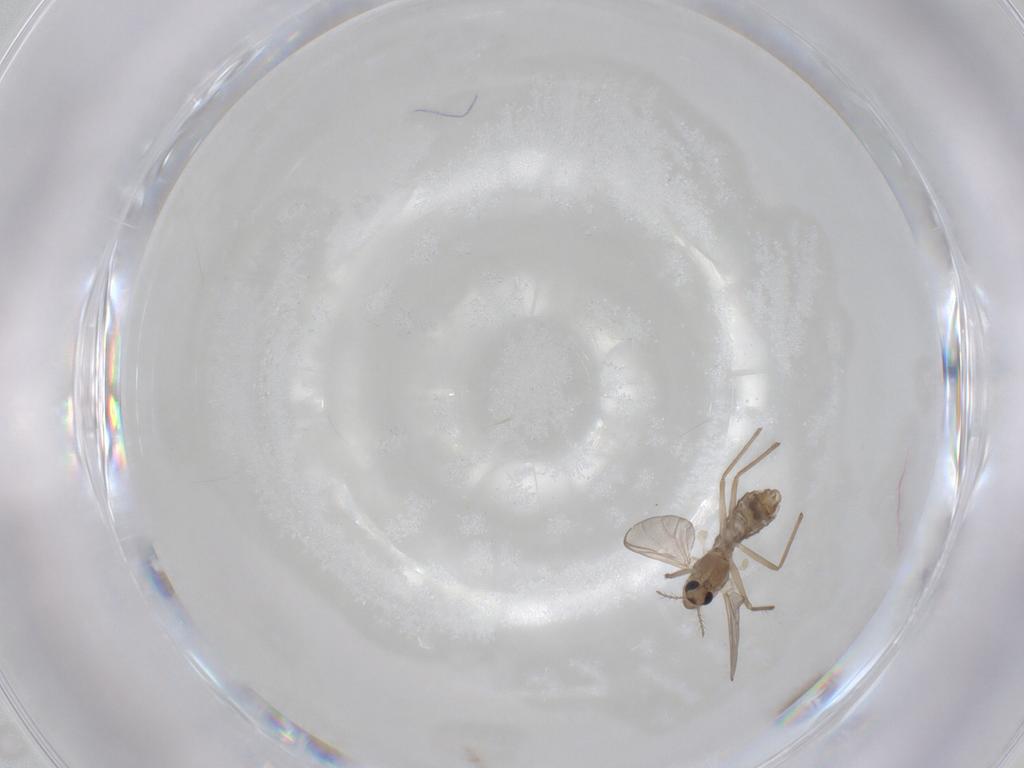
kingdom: Animalia
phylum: Arthropoda
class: Insecta
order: Diptera
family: Chironomidae
